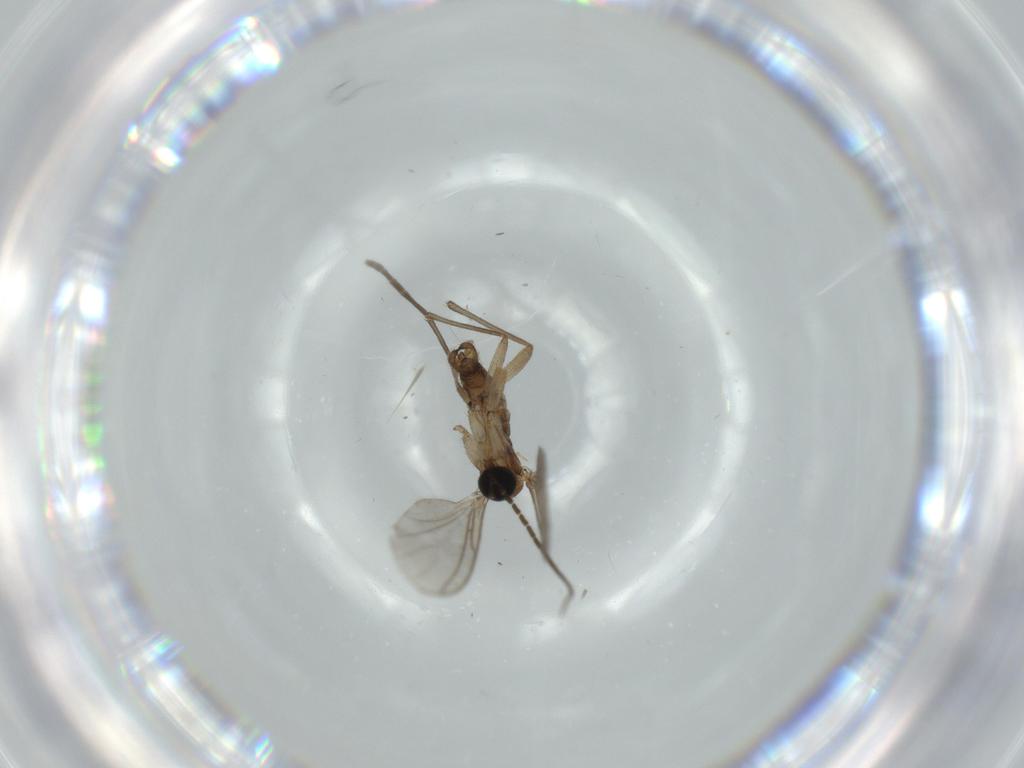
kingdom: Animalia
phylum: Arthropoda
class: Insecta
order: Diptera
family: Sciaridae
